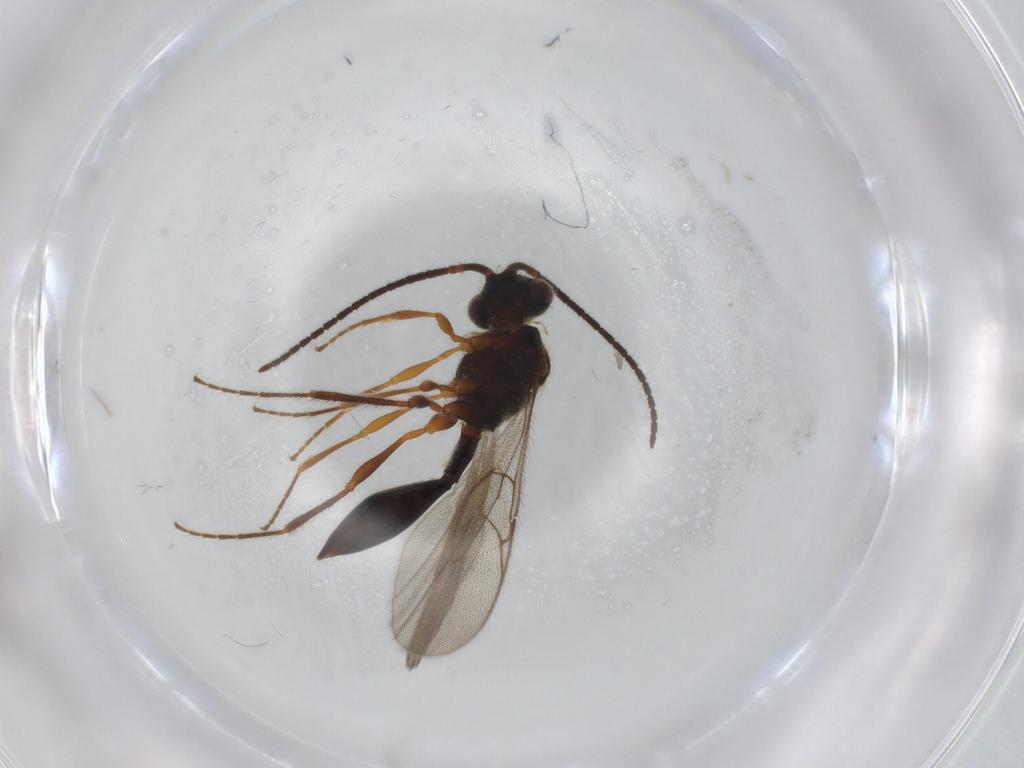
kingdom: Animalia
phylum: Arthropoda
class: Insecta
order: Hymenoptera
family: Diapriidae
